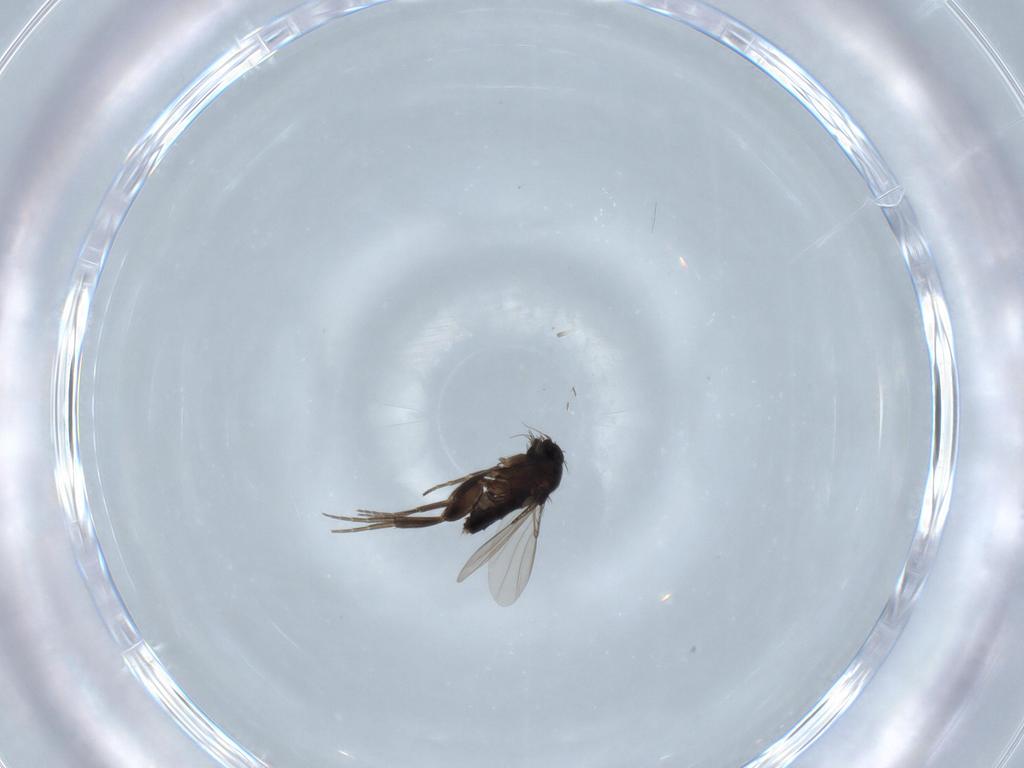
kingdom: Animalia
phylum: Arthropoda
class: Insecta
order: Diptera
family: Phoridae
